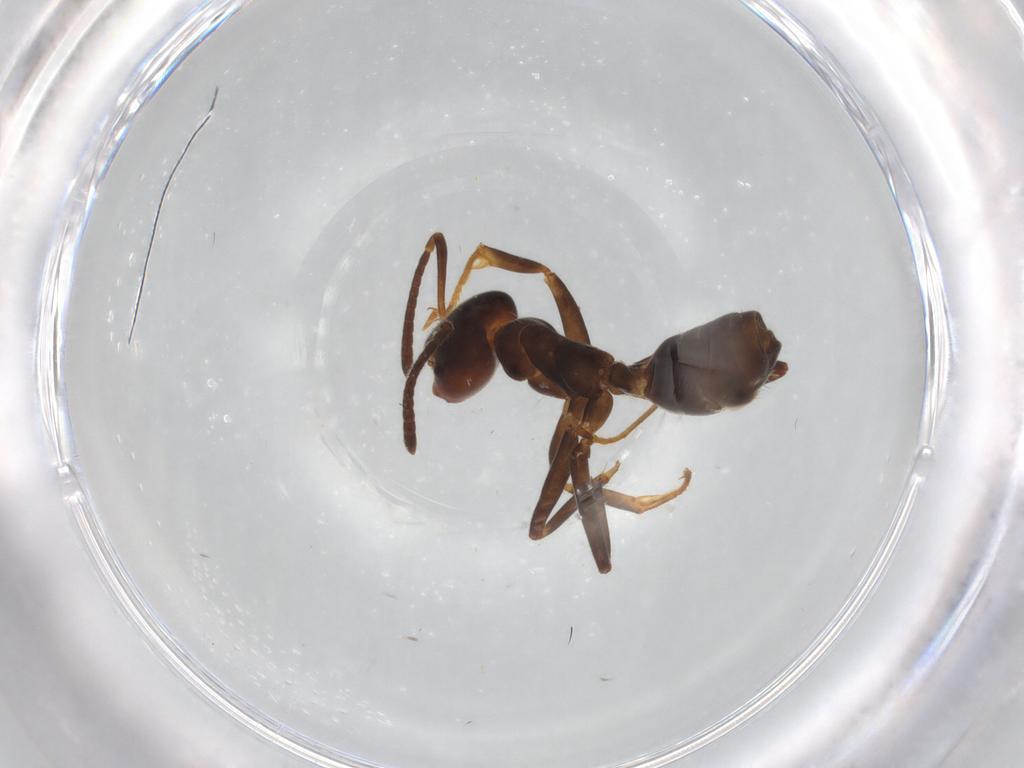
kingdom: Animalia
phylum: Arthropoda
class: Insecta
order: Hymenoptera
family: Formicidae
